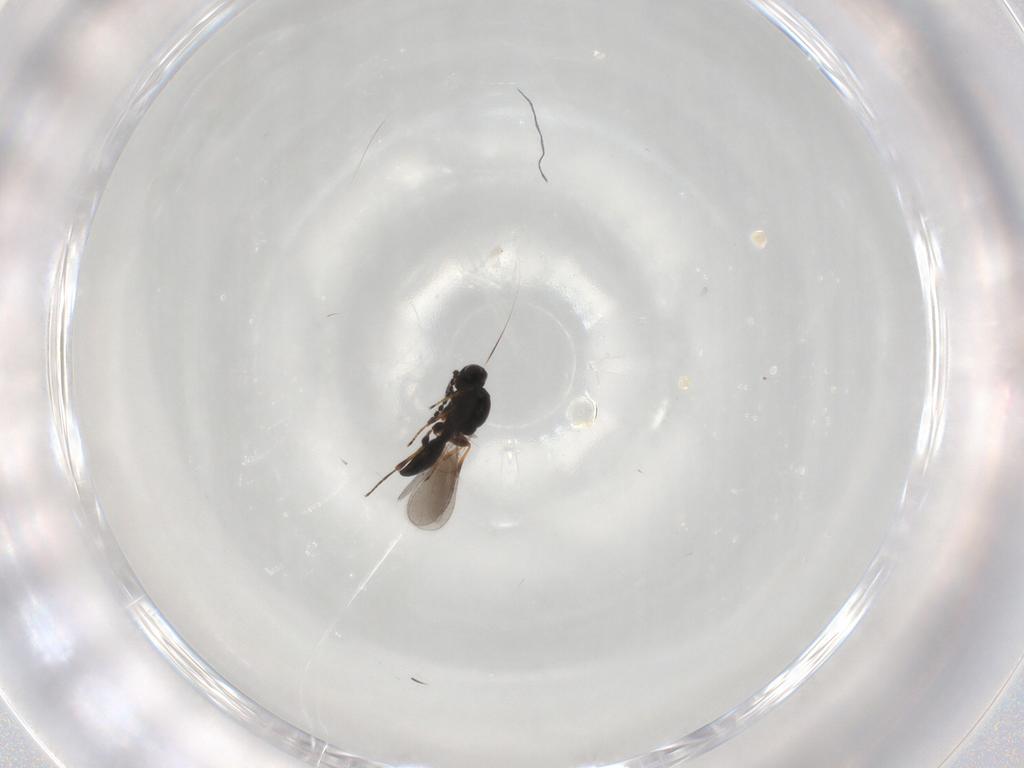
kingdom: Animalia
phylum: Arthropoda
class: Insecta
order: Hymenoptera
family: Platygastridae
